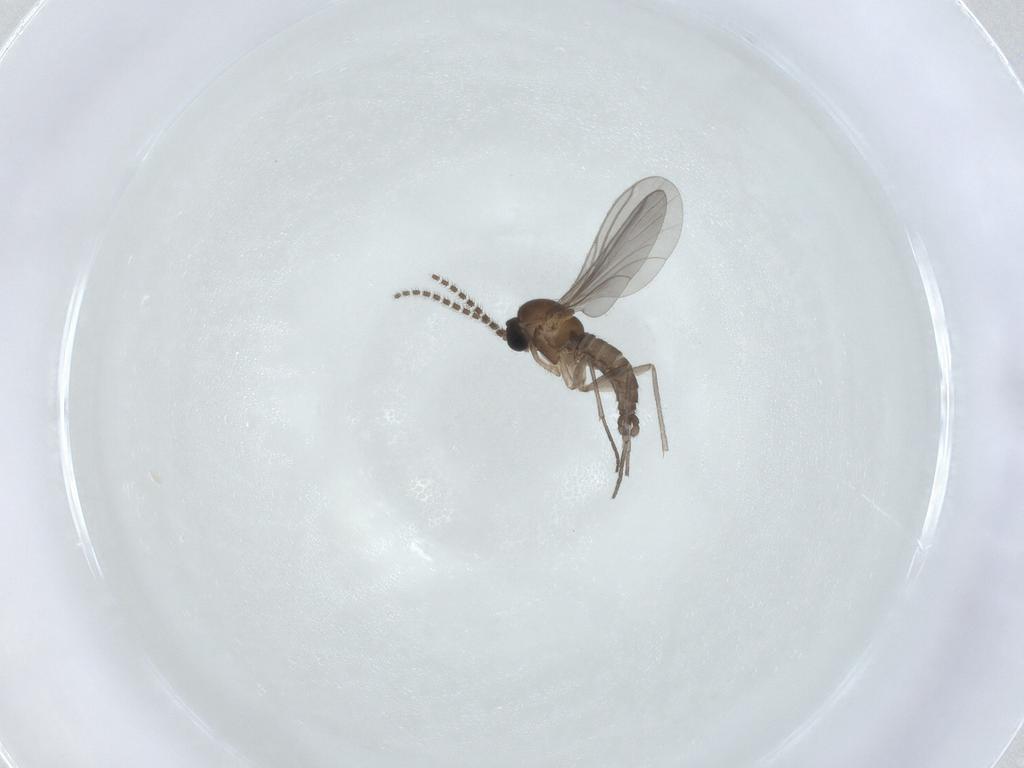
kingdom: Animalia
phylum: Arthropoda
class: Insecta
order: Diptera
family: Sciaridae
